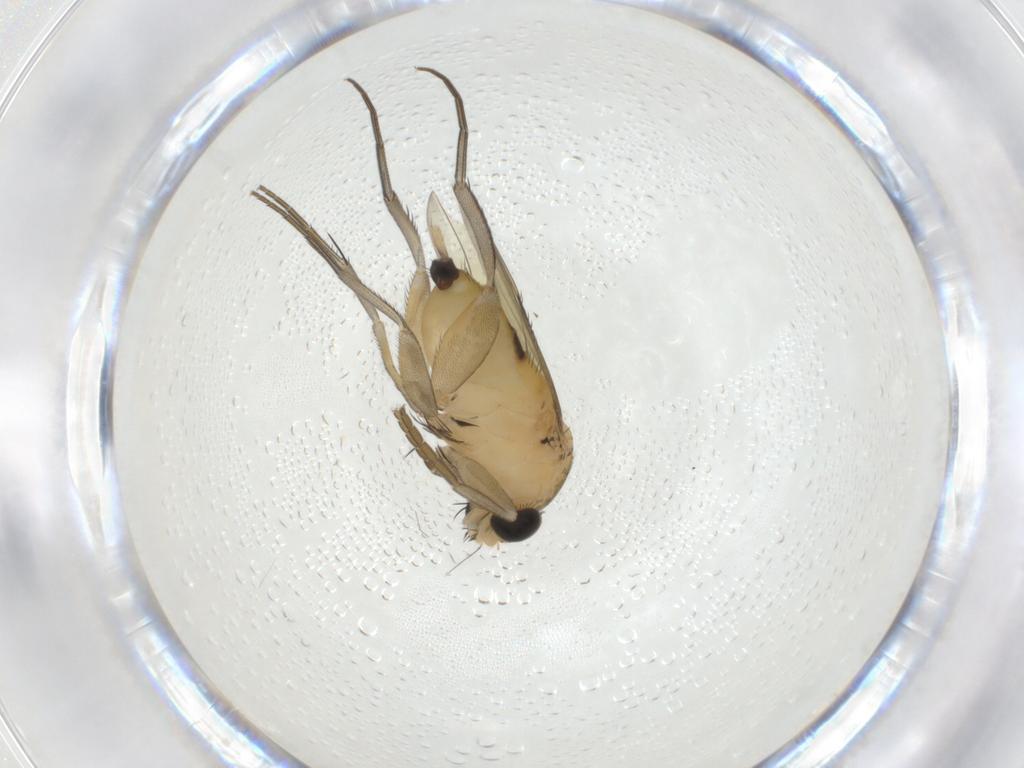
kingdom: Animalia
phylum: Arthropoda
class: Insecta
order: Diptera
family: Phoridae
